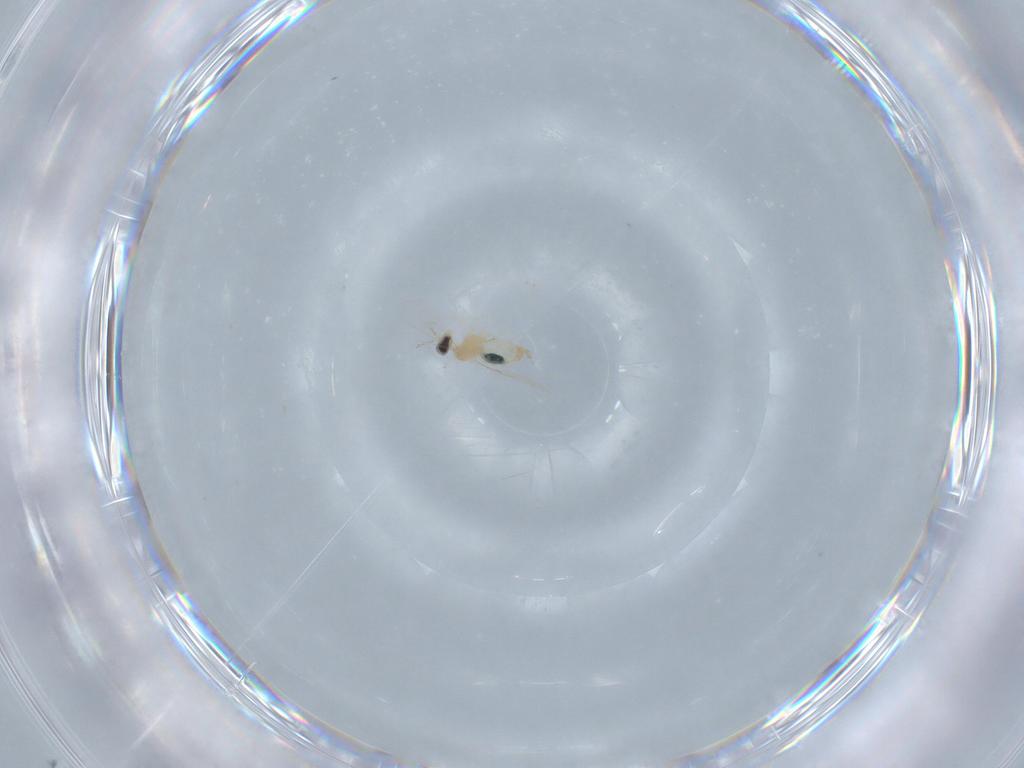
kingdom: Animalia
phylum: Arthropoda
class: Insecta
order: Diptera
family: Cecidomyiidae
